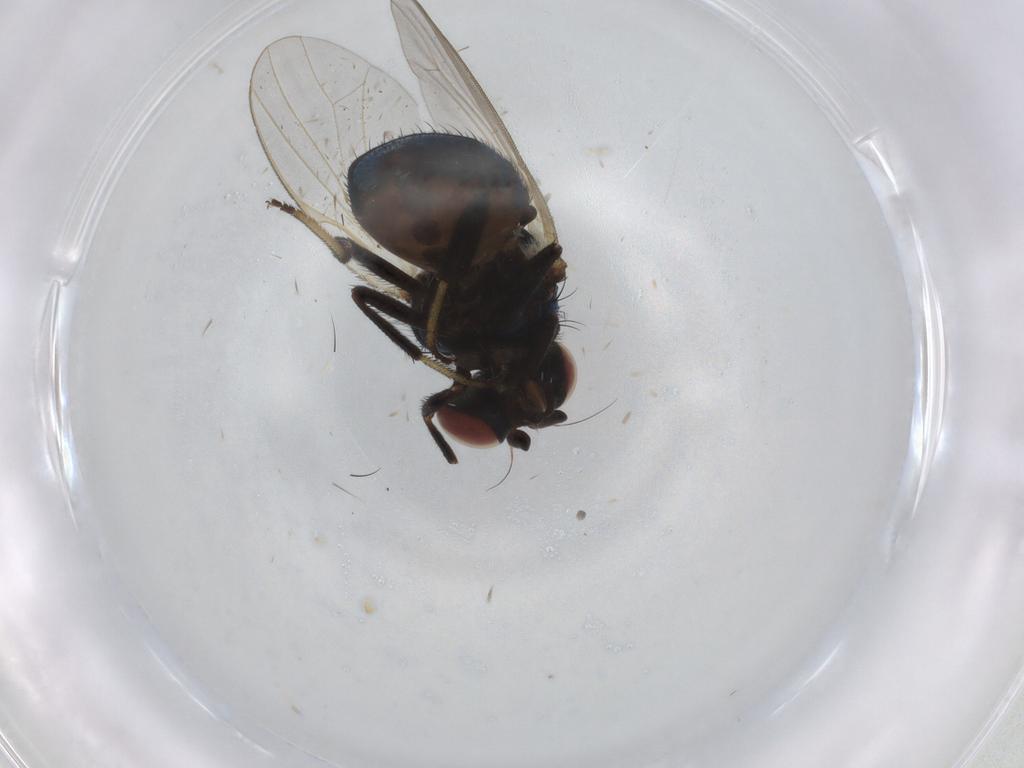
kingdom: Animalia
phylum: Arthropoda
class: Insecta
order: Diptera
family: Lonchaeidae
